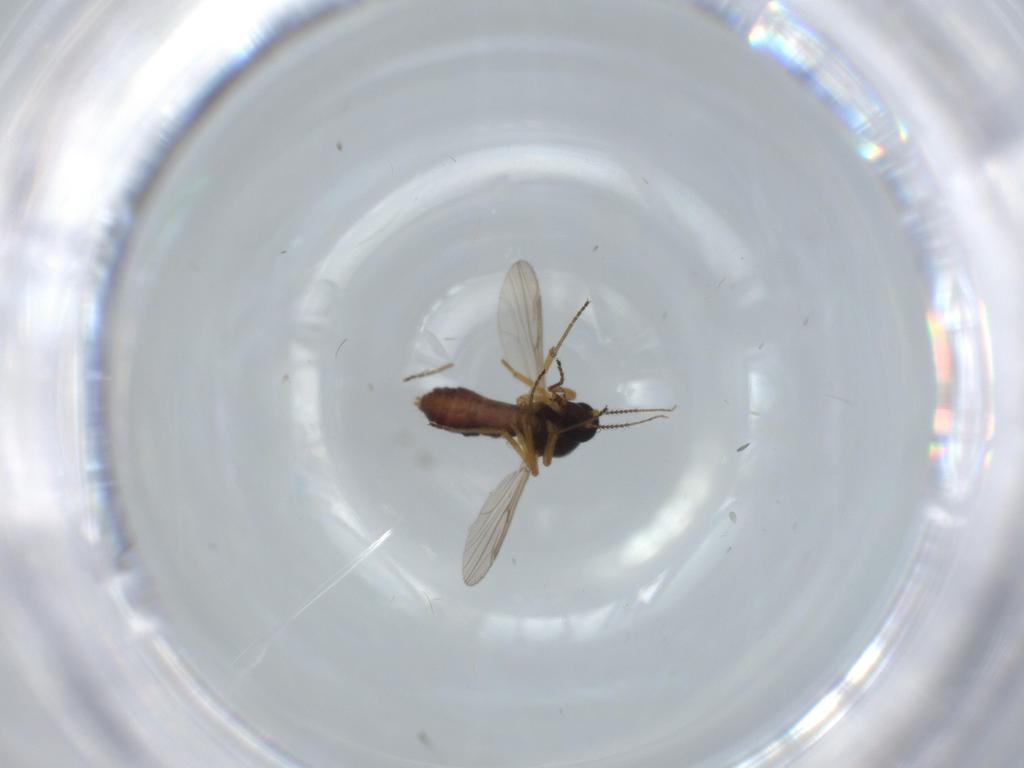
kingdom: Animalia
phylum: Arthropoda
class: Insecta
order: Diptera
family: Ceratopogonidae
